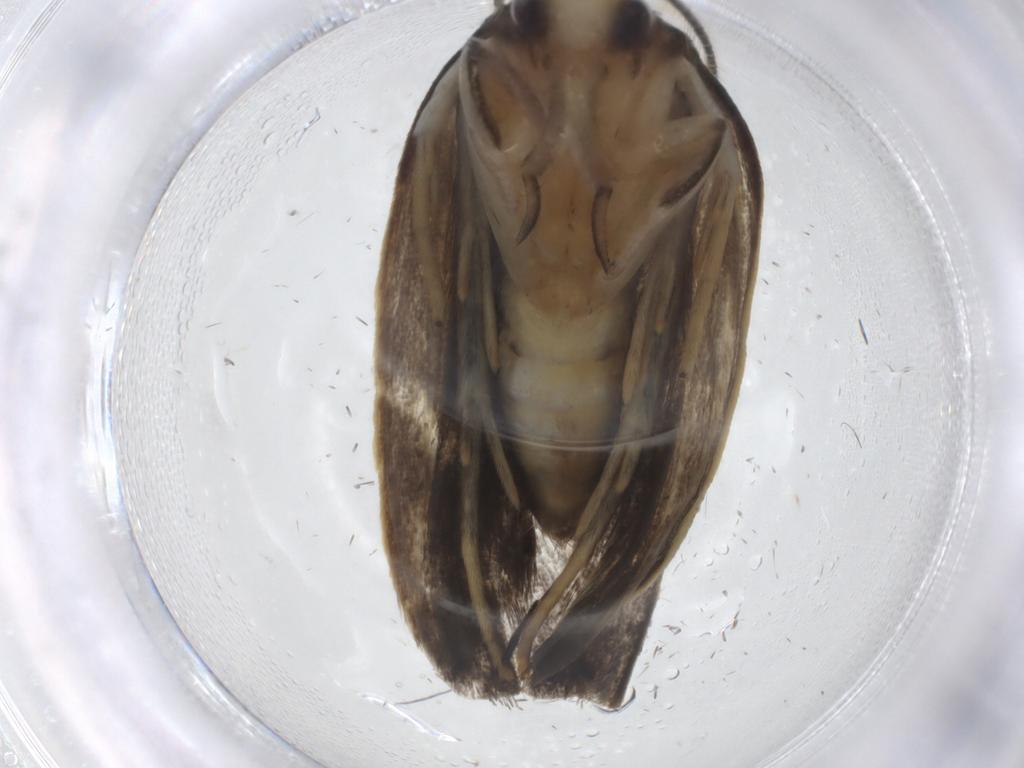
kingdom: Animalia
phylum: Arthropoda
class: Insecta
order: Lepidoptera
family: Depressariidae
